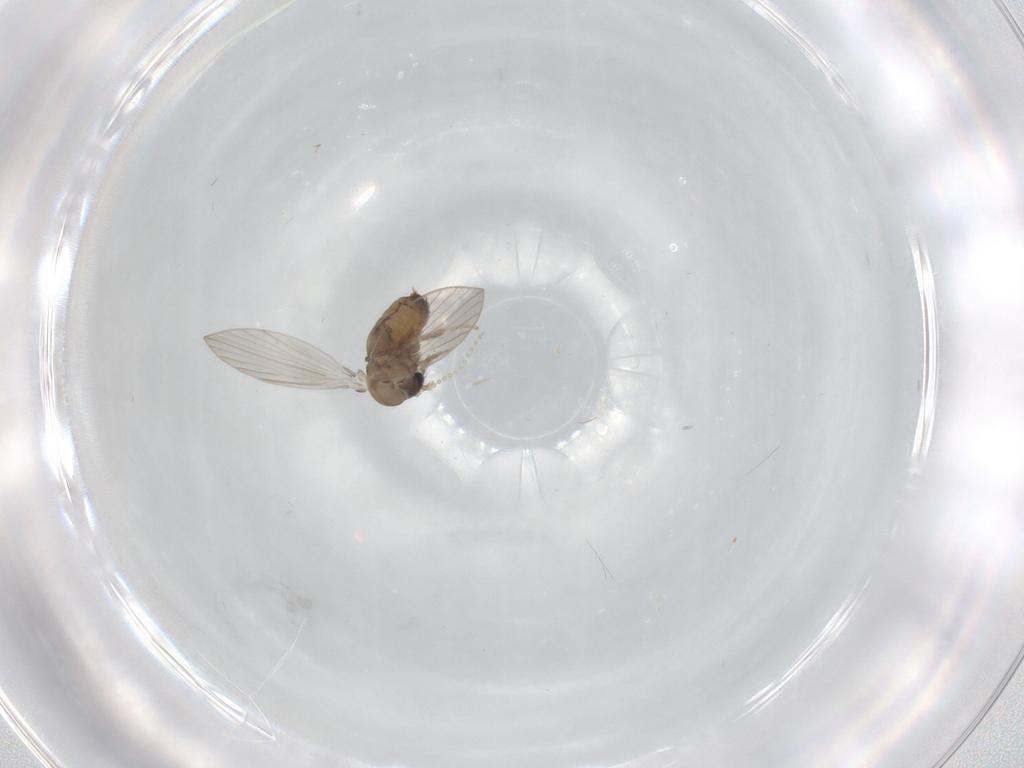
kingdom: Animalia
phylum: Arthropoda
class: Insecta
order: Diptera
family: Psychodidae
